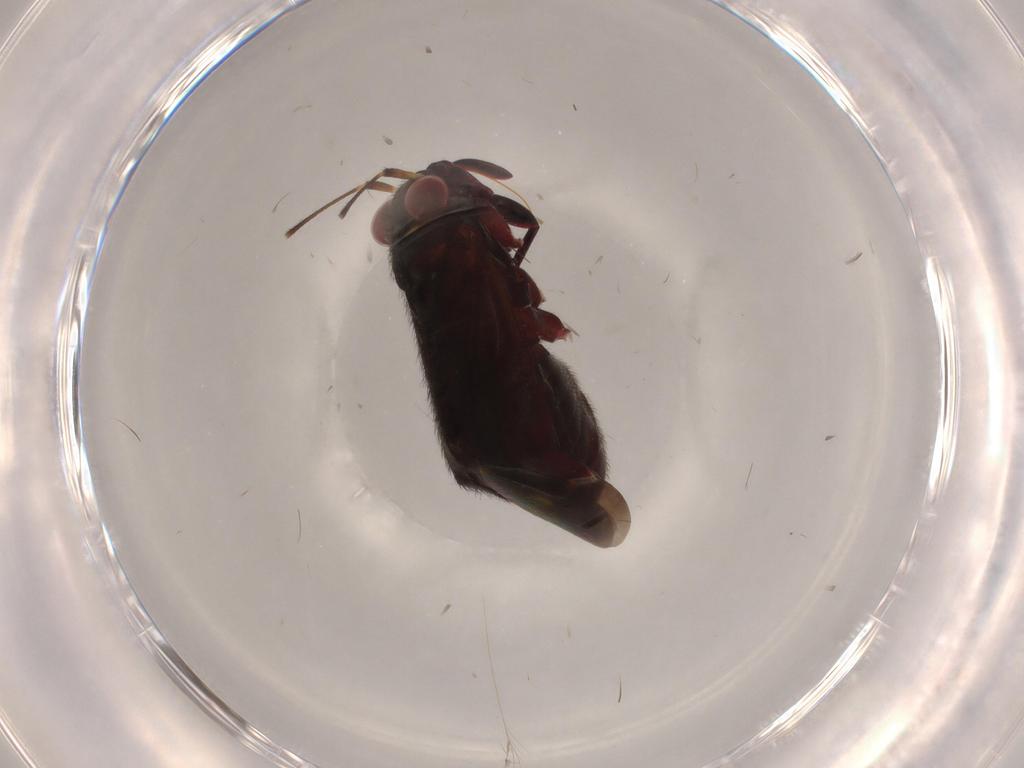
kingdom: Animalia
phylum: Arthropoda
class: Insecta
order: Hemiptera
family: Miridae
